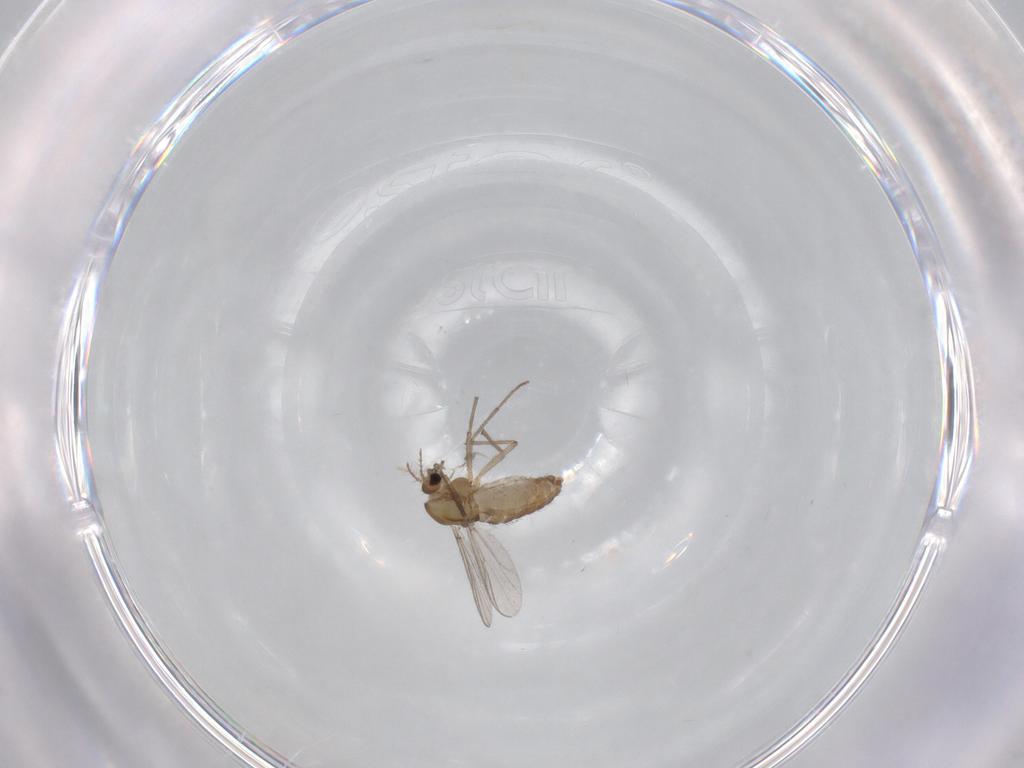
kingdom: Animalia
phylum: Arthropoda
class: Insecta
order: Diptera
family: Chironomidae
